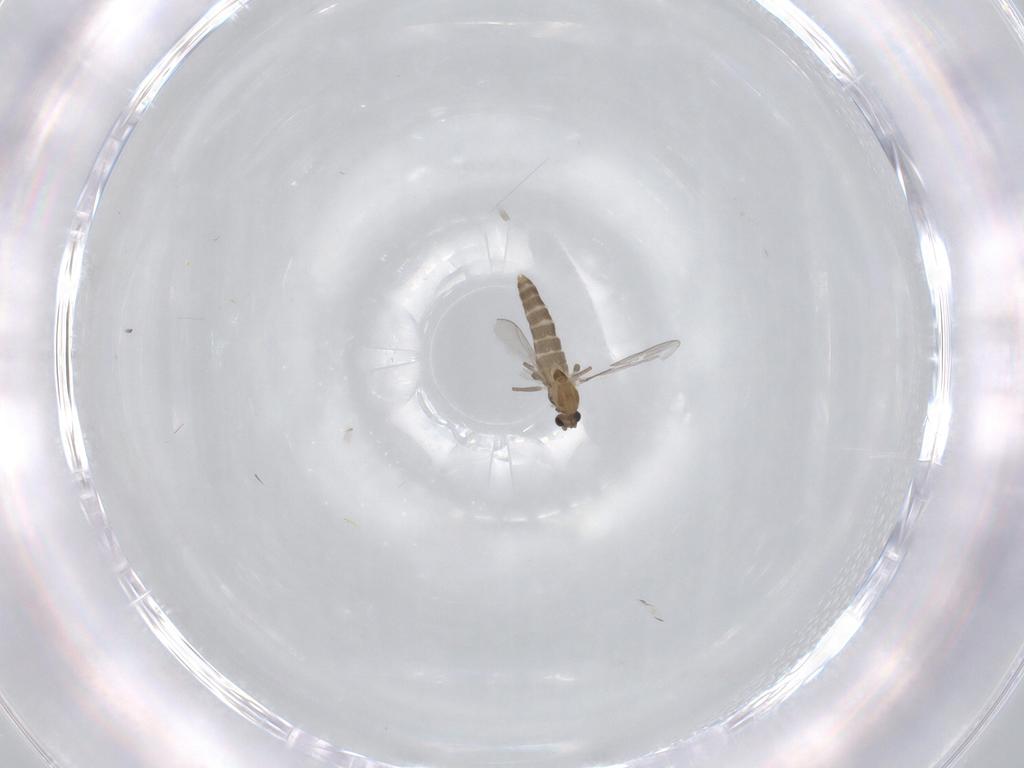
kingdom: Animalia
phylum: Arthropoda
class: Insecta
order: Diptera
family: Chironomidae
